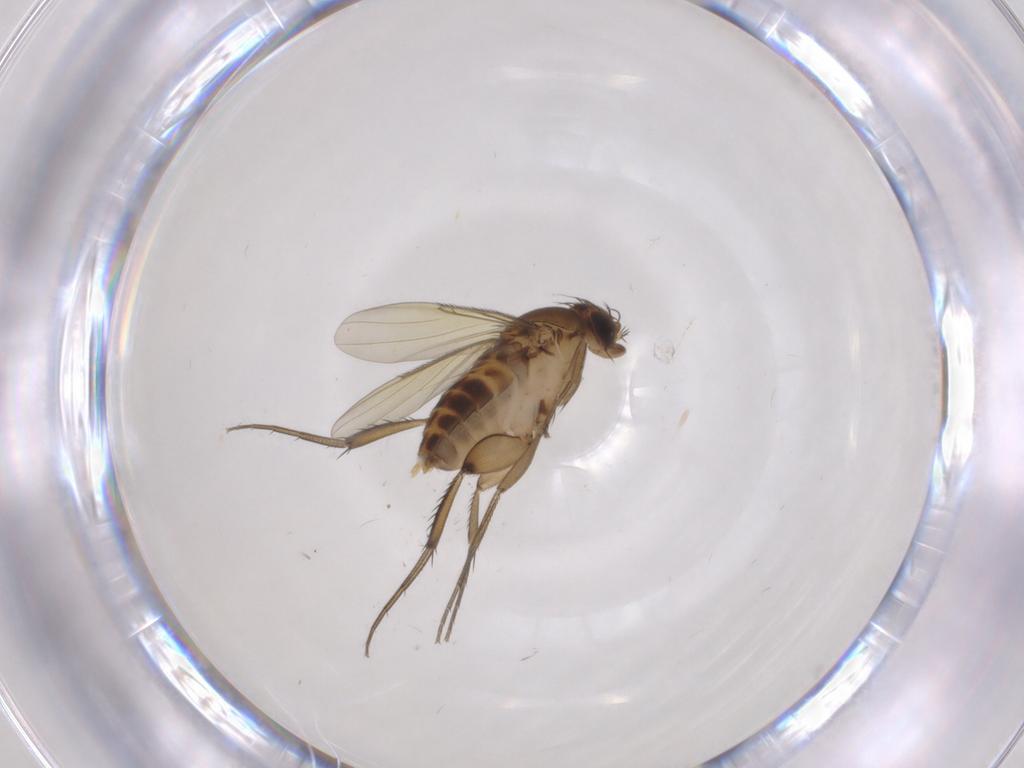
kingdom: Animalia
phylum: Arthropoda
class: Insecta
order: Diptera
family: Phoridae
